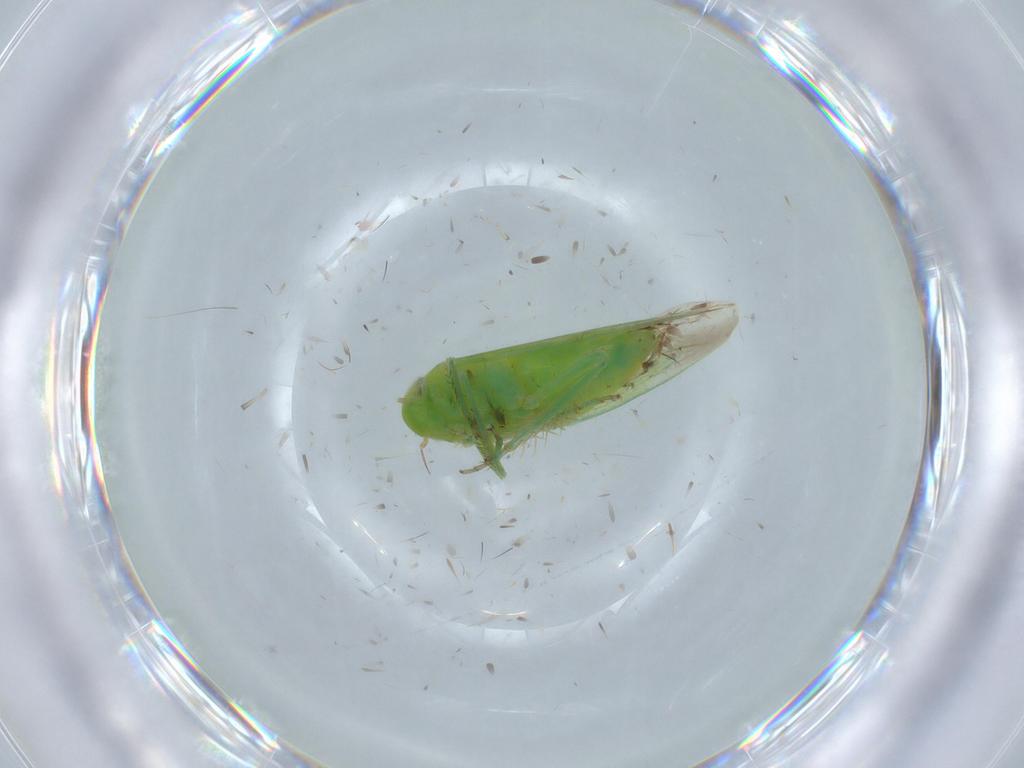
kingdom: Animalia
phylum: Arthropoda
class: Insecta
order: Hemiptera
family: Cicadellidae
